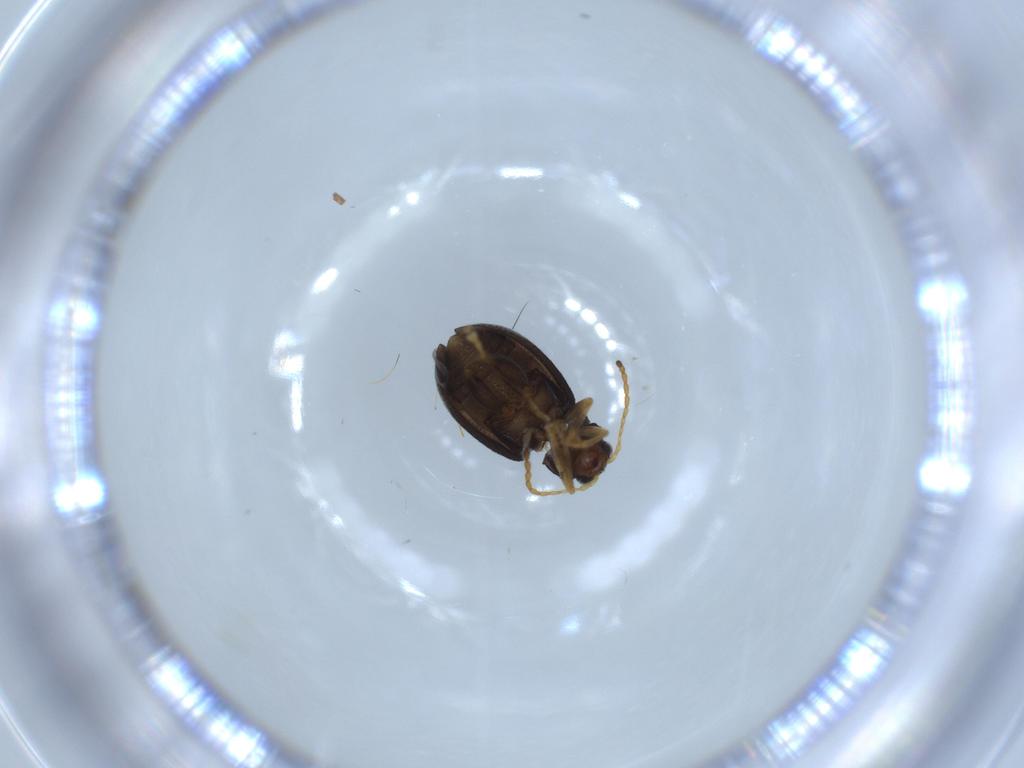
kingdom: Animalia
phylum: Arthropoda
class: Insecta
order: Coleoptera
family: Chrysomelidae
